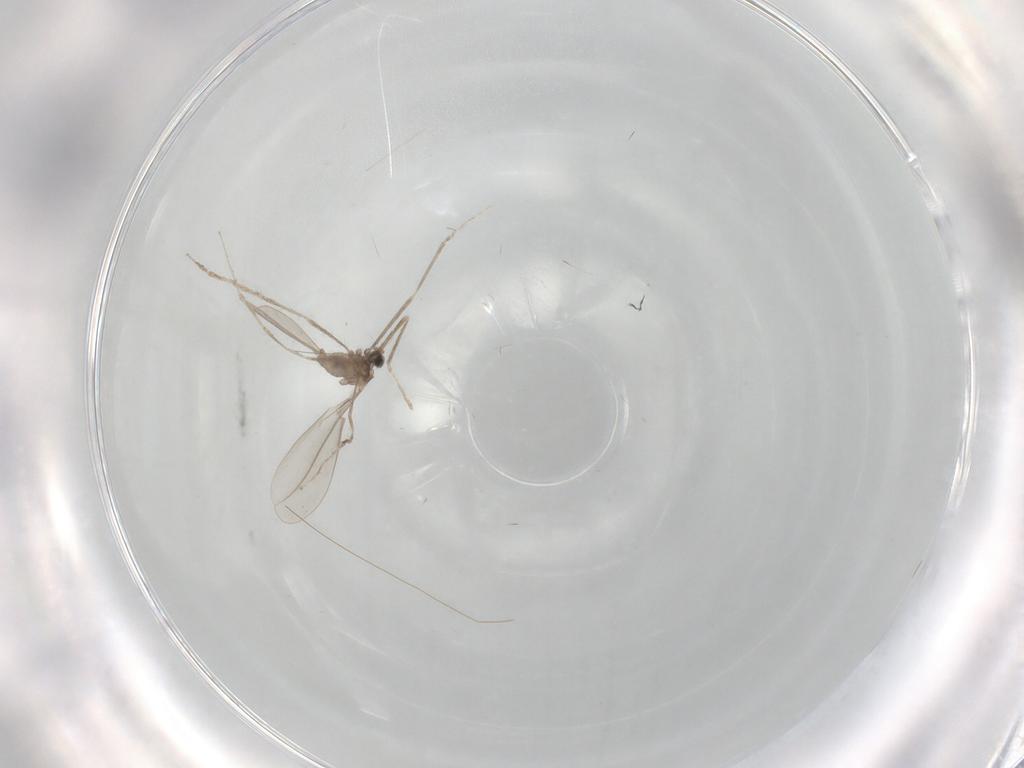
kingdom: Animalia
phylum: Arthropoda
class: Insecta
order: Diptera
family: Cecidomyiidae
